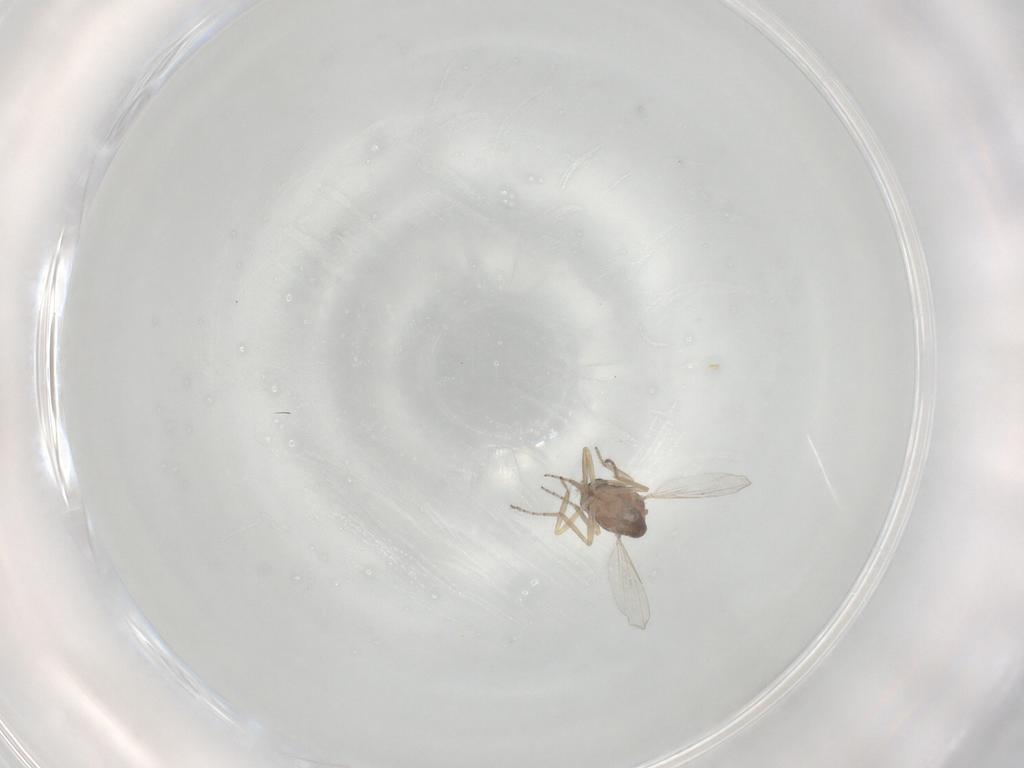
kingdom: Animalia
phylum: Arthropoda
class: Insecta
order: Diptera
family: Ceratopogonidae
